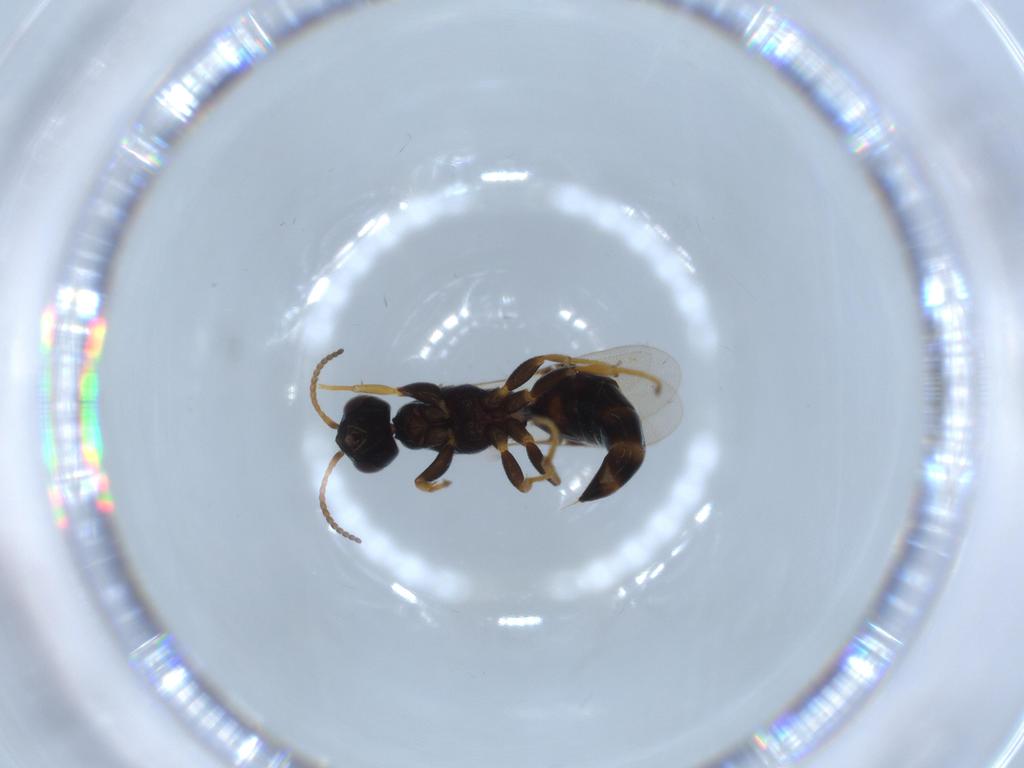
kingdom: Animalia
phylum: Arthropoda
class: Insecta
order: Hymenoptera
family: Bethylidae
